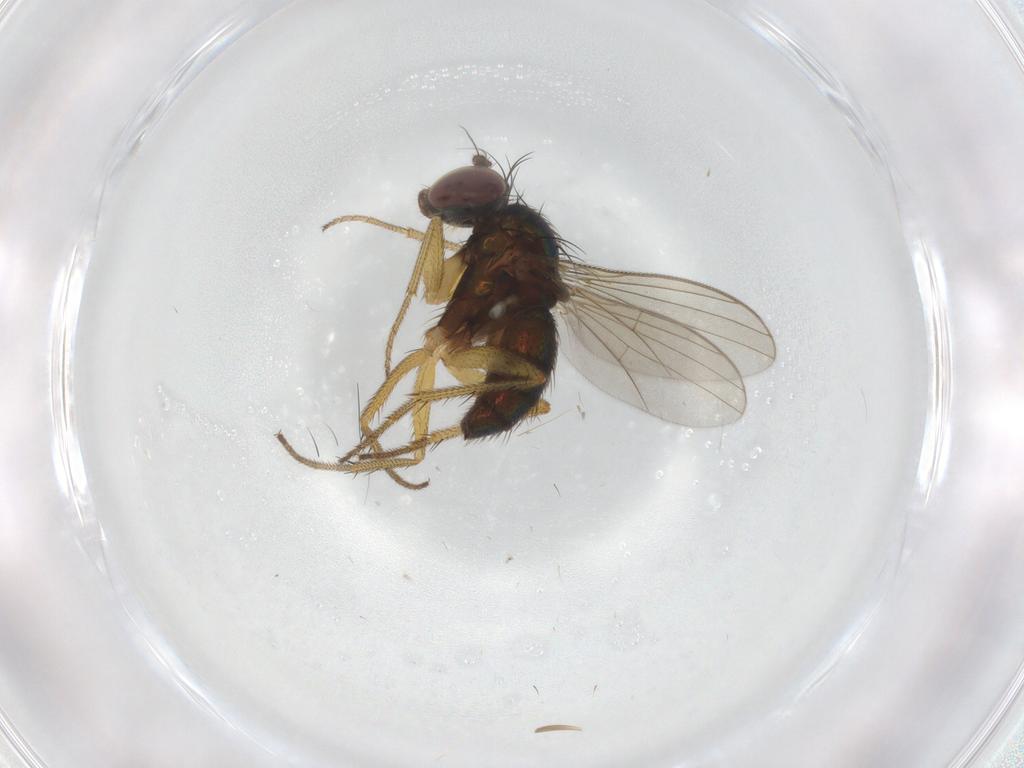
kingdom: Animalia
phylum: Arthropoda
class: Insecta
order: Diptera
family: Dolichopodidae
